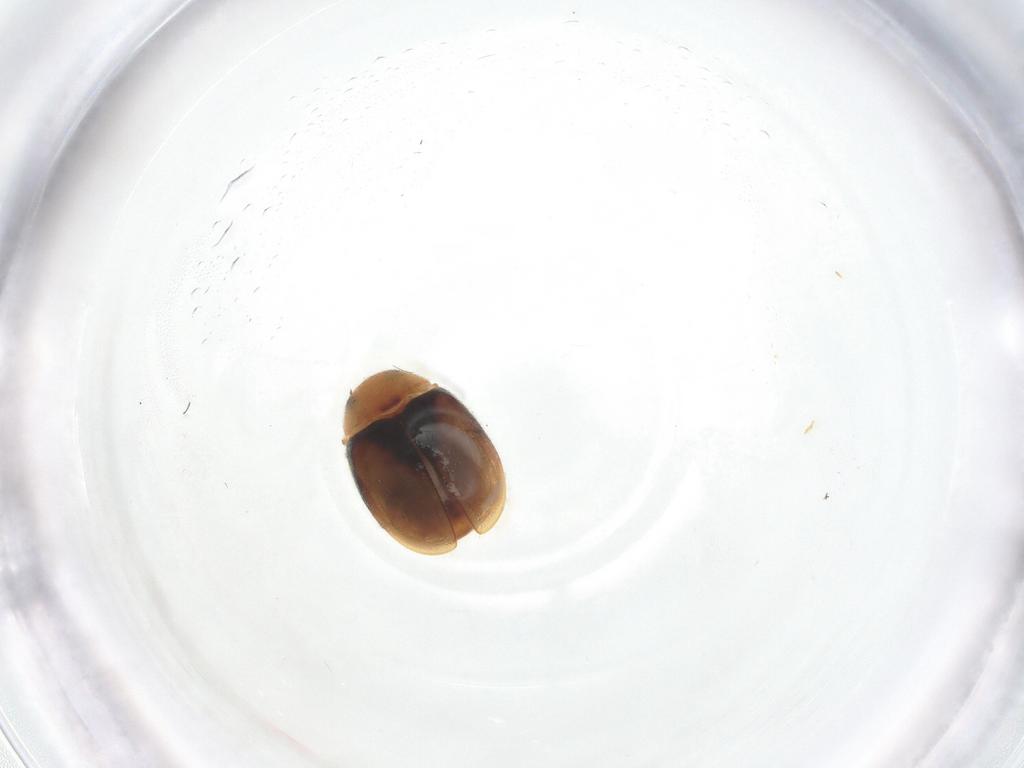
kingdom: Animalia
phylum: Arthropoda
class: Insecta
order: Coleoptera
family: Coccinellidae
